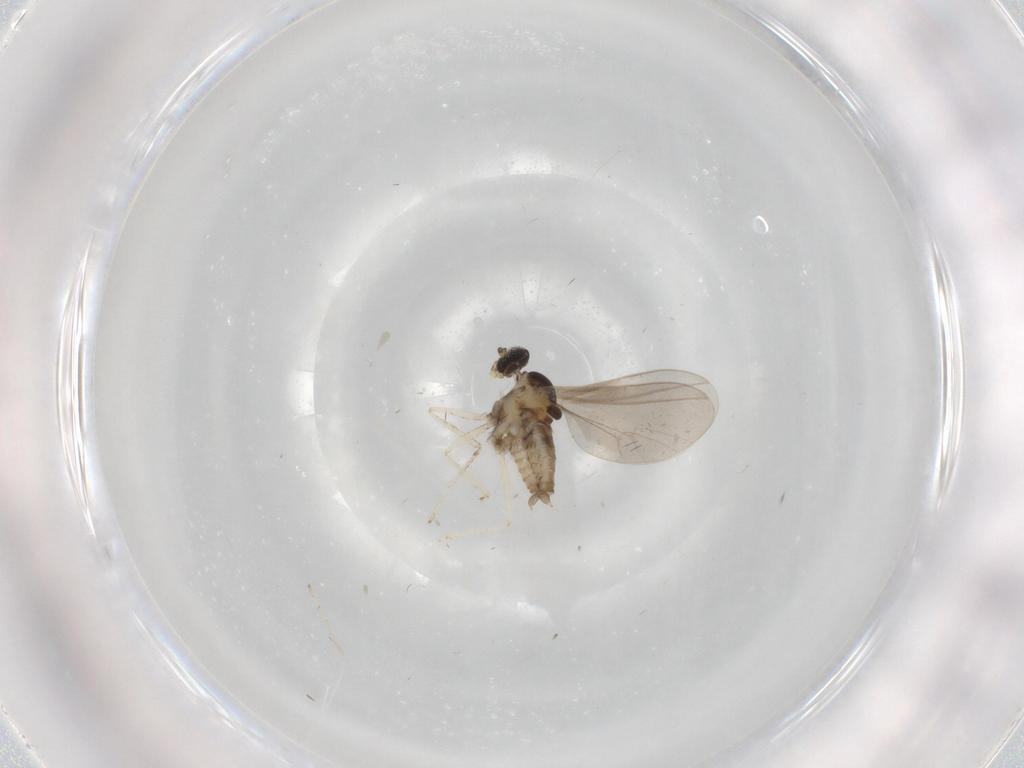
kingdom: Animalia
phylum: Arthropoda
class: Insecta
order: Diptera
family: Cecidomyiidae
